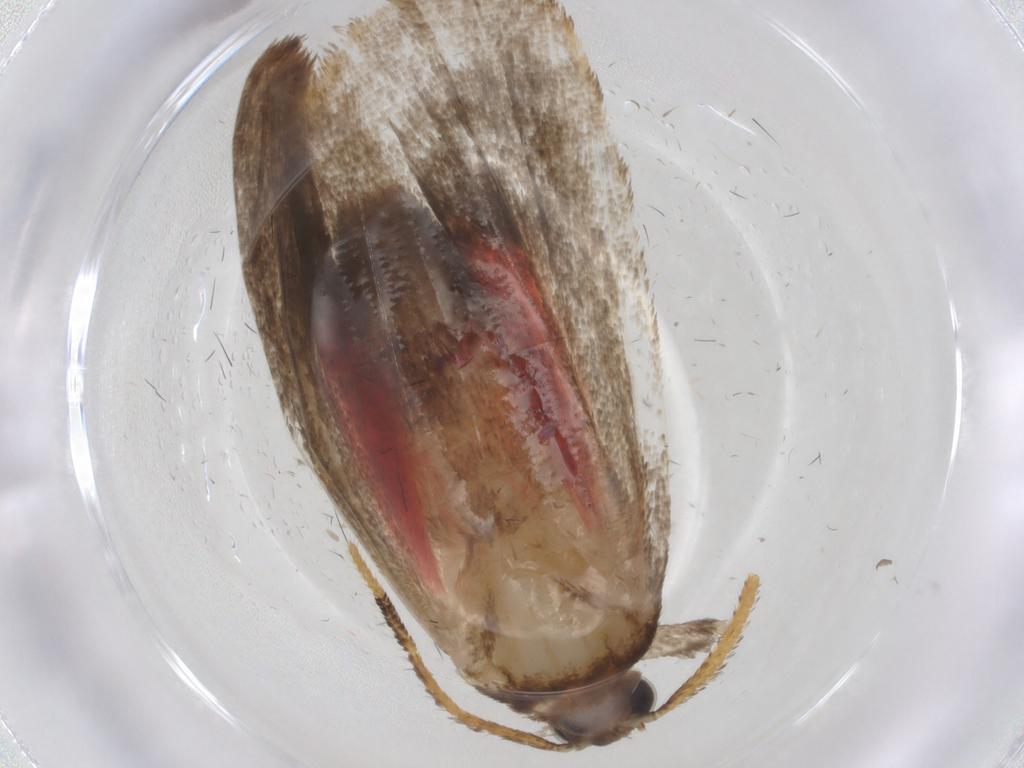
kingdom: Animalia
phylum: Arthropoda
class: Insecta
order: Lepidoptera
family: Erebidae
